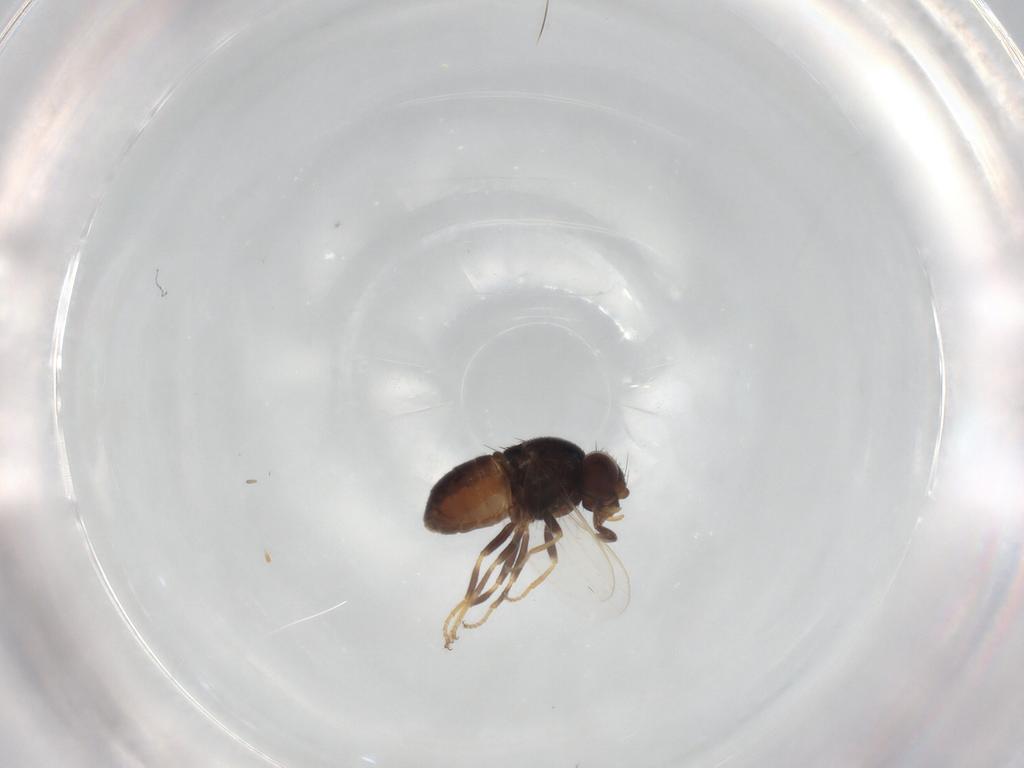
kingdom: Animalia
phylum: Arthropoda
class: Insecta
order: Diptera
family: Chloropidae
